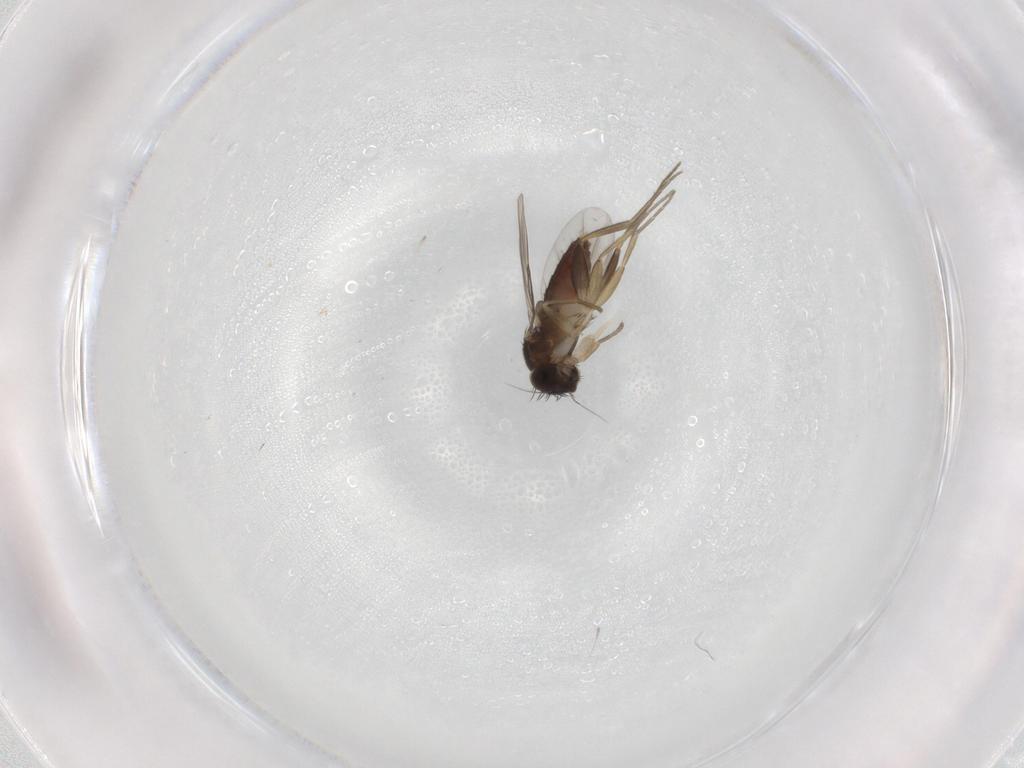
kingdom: Animalia
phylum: Arthropoda
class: Insecta
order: Diptera
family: Phoridae
